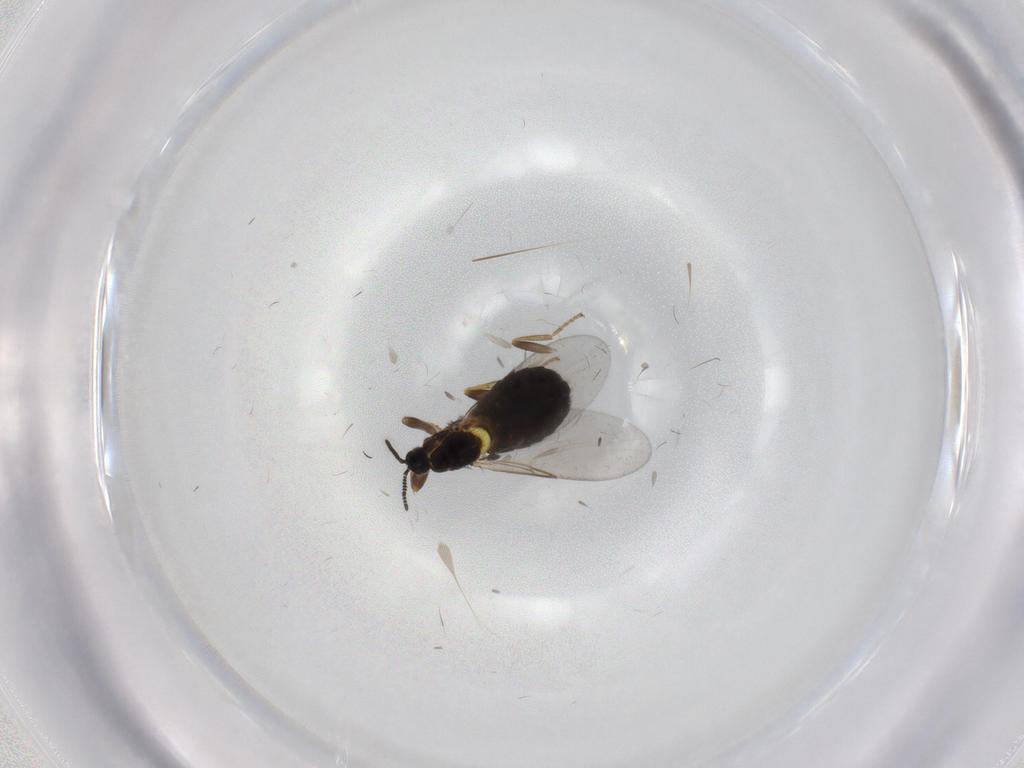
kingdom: Animalia
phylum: Arthropoda
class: Insecta
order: Diptera
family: Scatopsidae
